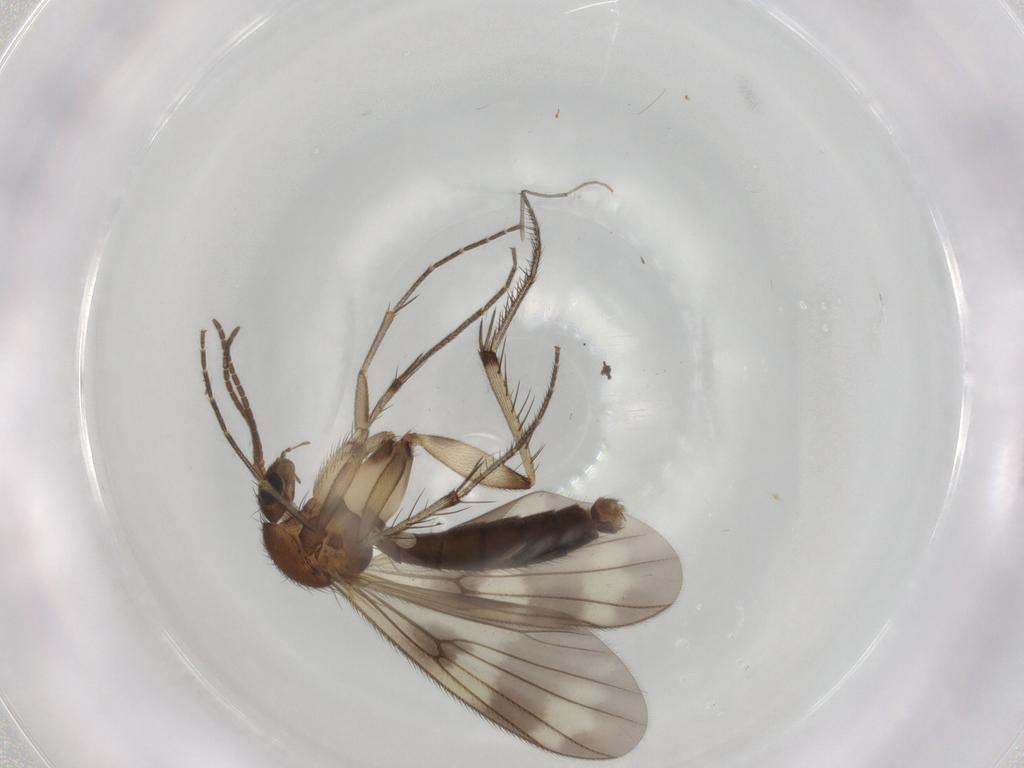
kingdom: Animalia
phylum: Arthropoda
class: Insecta
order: Diptera
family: Mycetophilidae
